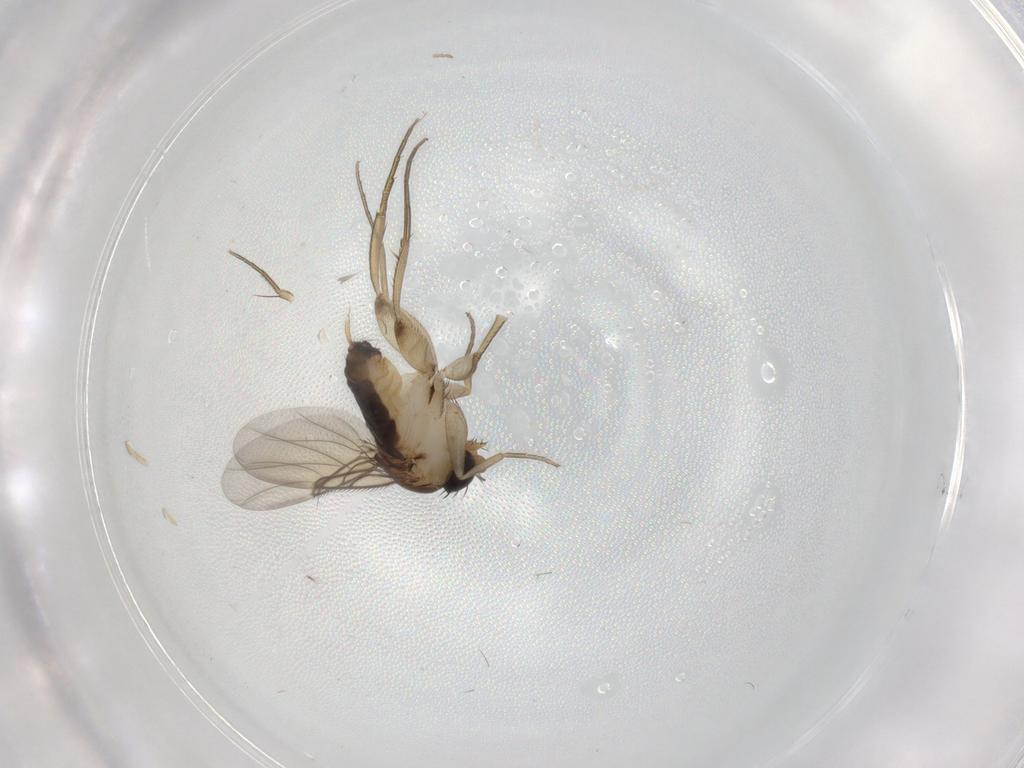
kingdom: Animalia
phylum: Arthropoda
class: Insecta
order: Diptera
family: Phoridae
